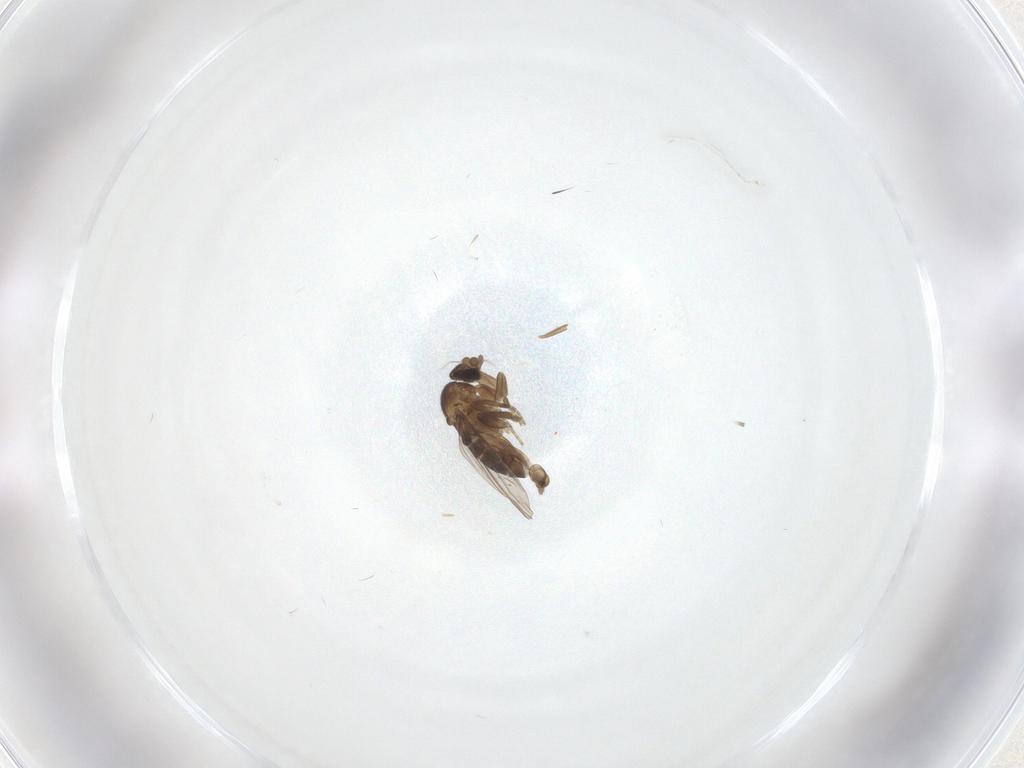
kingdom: Animalia
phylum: Arthropoda
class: Insecta
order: Diptera
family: Phoridae
